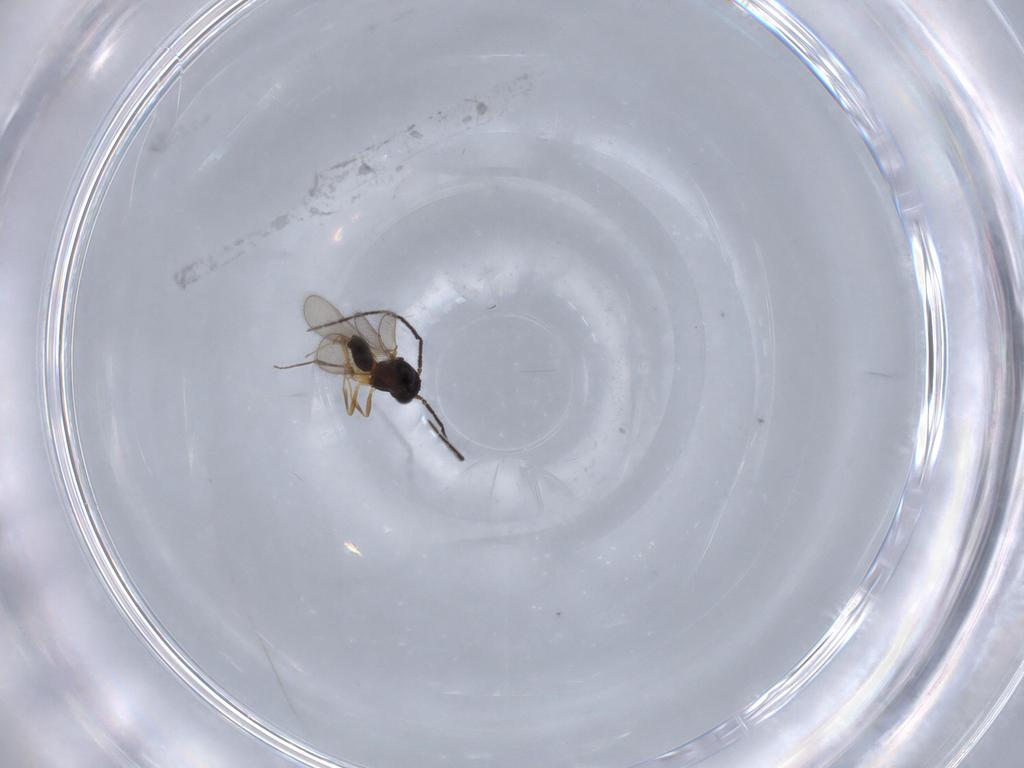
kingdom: Animalia
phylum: Arthropoda
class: Insecta
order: Hymenoptera
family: Scelionidae
